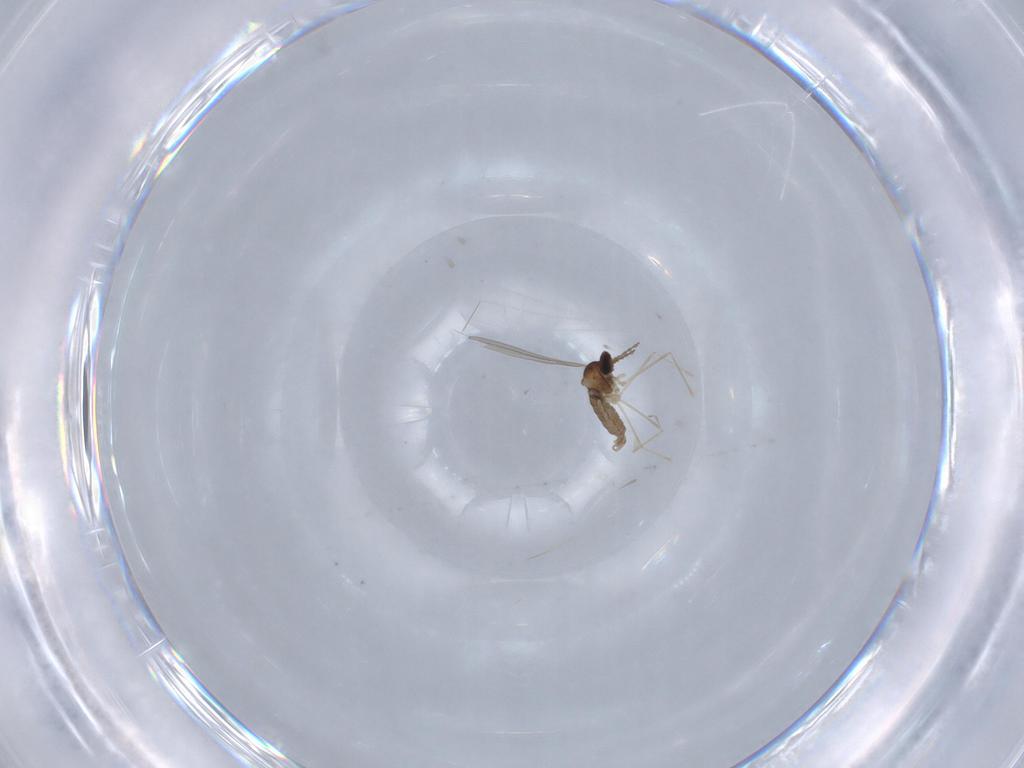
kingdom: Animalia
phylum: Arthropoda
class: Insecta
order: Diptera
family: Cecidomyiidae
